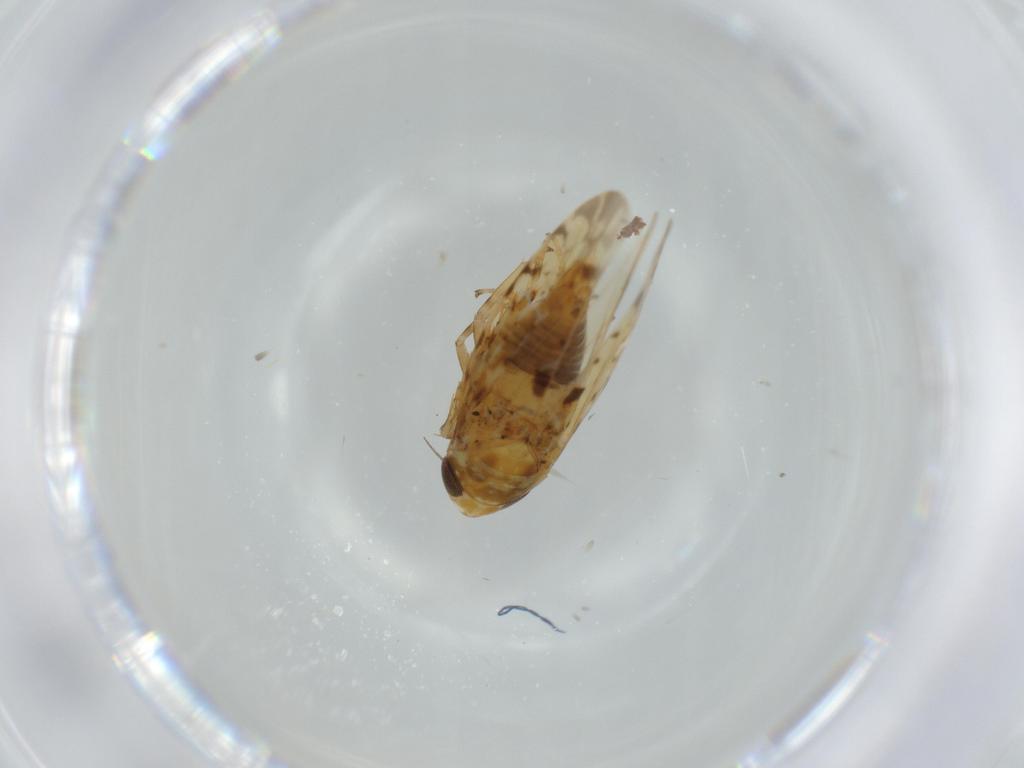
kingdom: Animalia
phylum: Arthropoda
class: Insecta
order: Hemiptera
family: Cicadellidae
